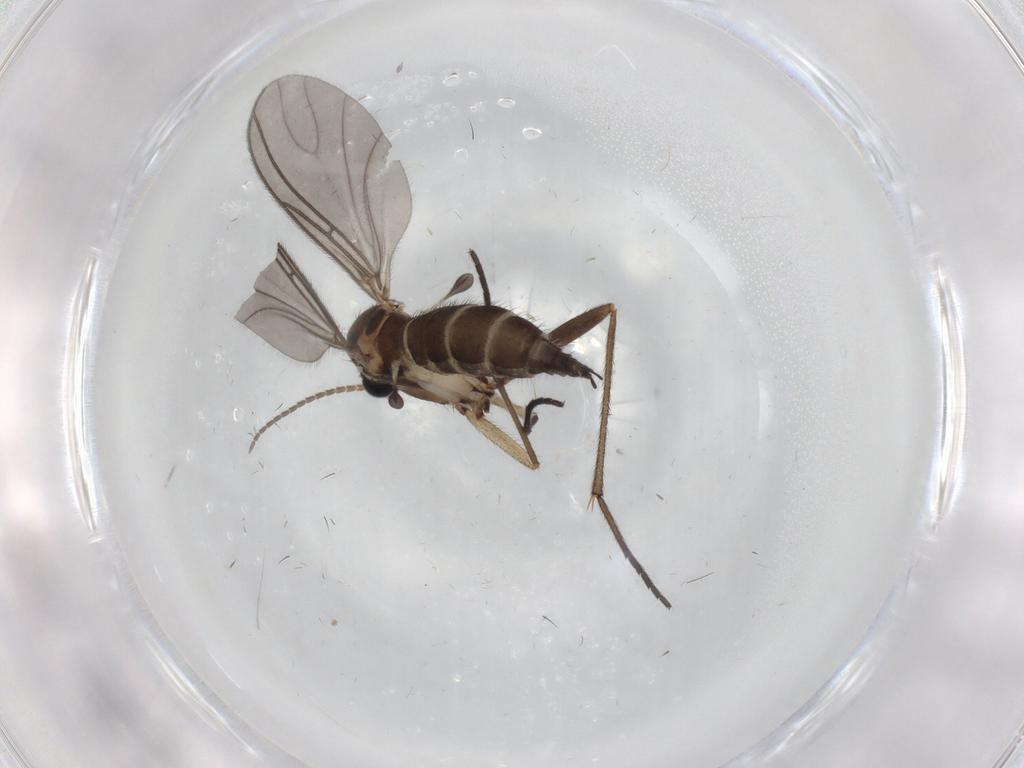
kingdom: Animalia
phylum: Arthropoda
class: Insecta
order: Diptera
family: Sciaridae
